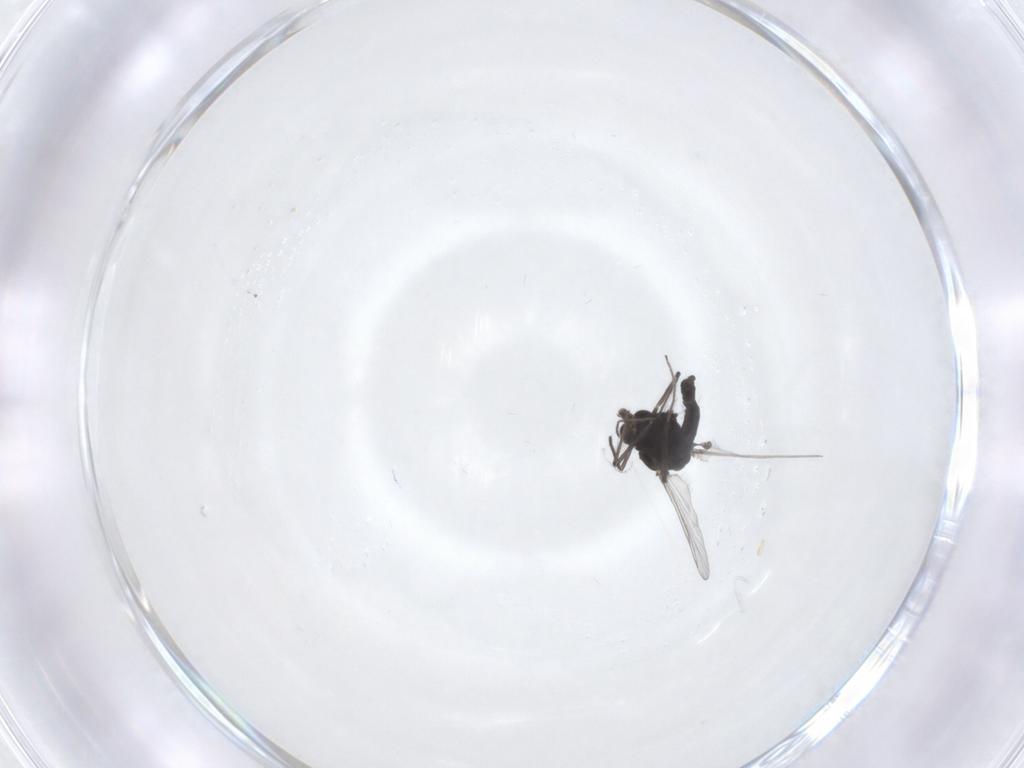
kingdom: Animalia
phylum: Arthropoda
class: Insecta
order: Diptera
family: Chironomidae
